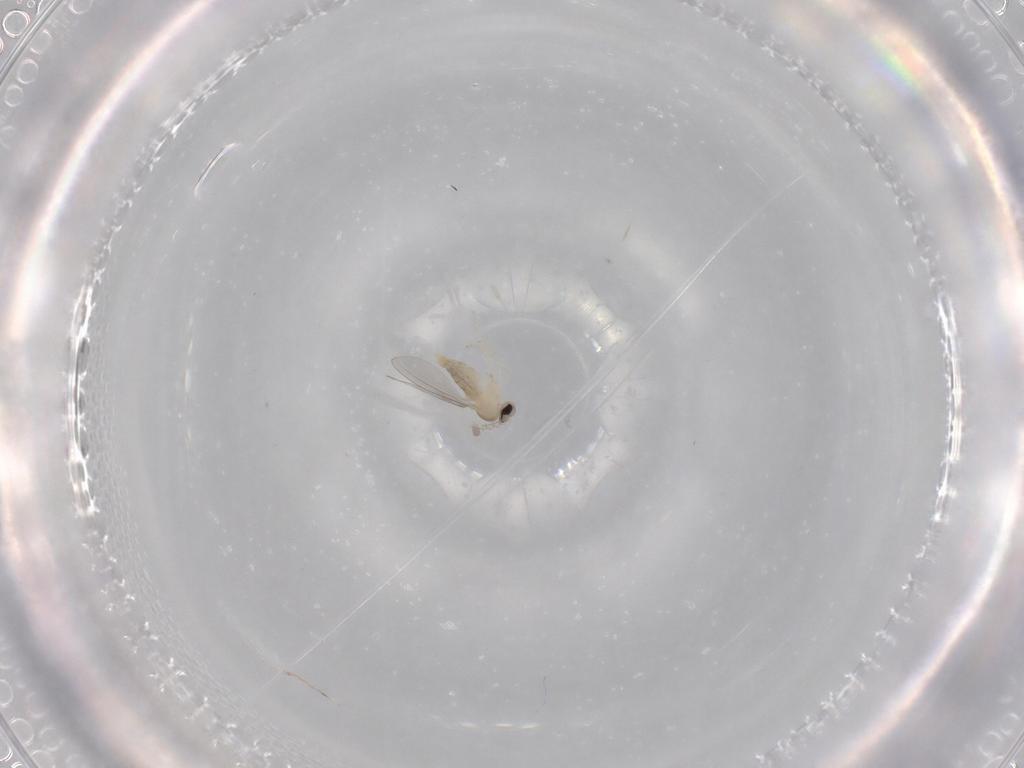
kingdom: Animalia
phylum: Arthropoda
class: Insecta
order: Diptera
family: Cecidomyiidae
